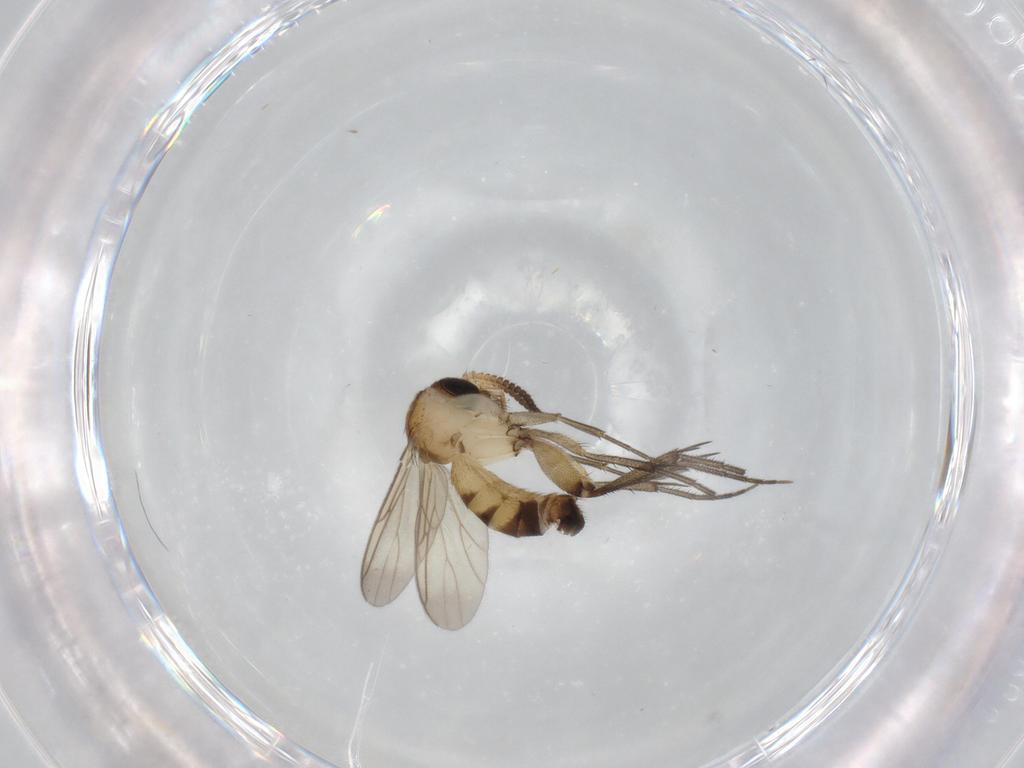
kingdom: Animalia
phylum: Arthropoda
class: Insecta
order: Diptera
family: Mycetophilidae
